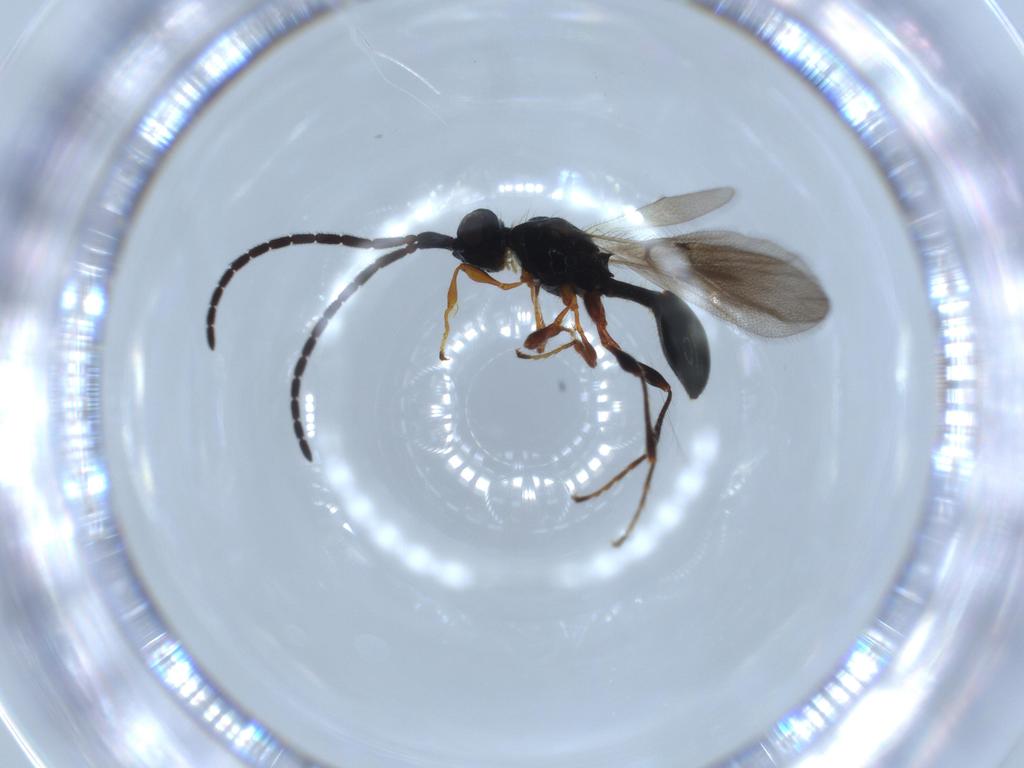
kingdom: Animalia
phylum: Arthropoda
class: Insecta
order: Hymenoptera
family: Diapriidae
